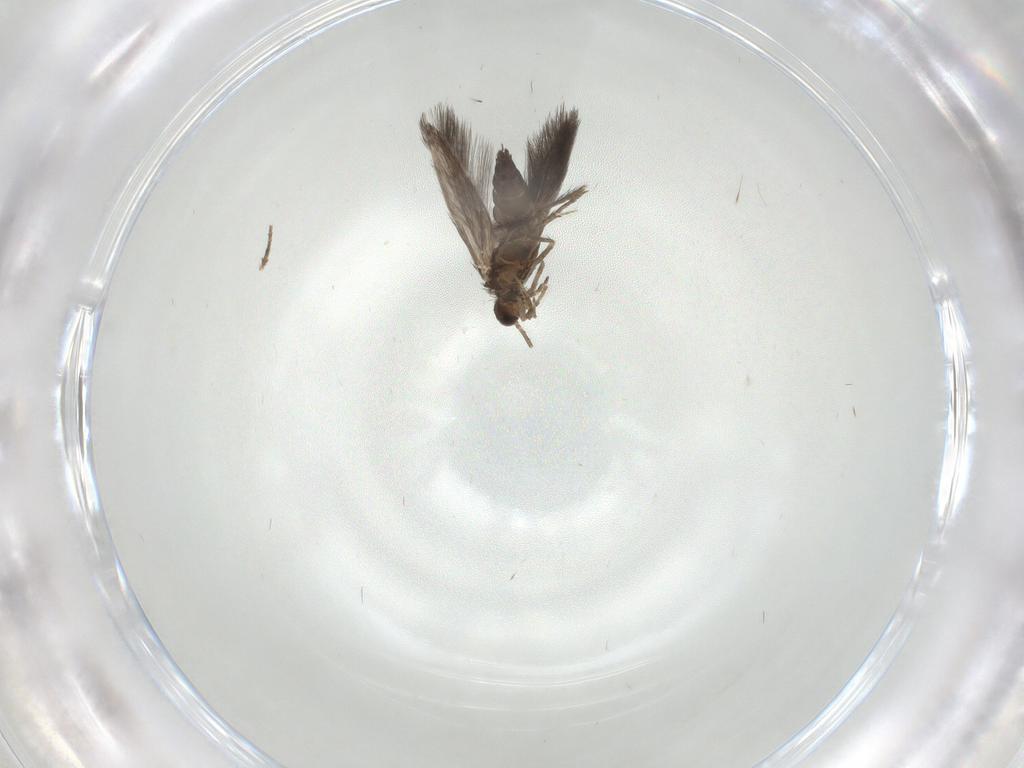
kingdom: Animalia
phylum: Arthropoda
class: Insecta
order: Trichoptera
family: Hydroptilidae
